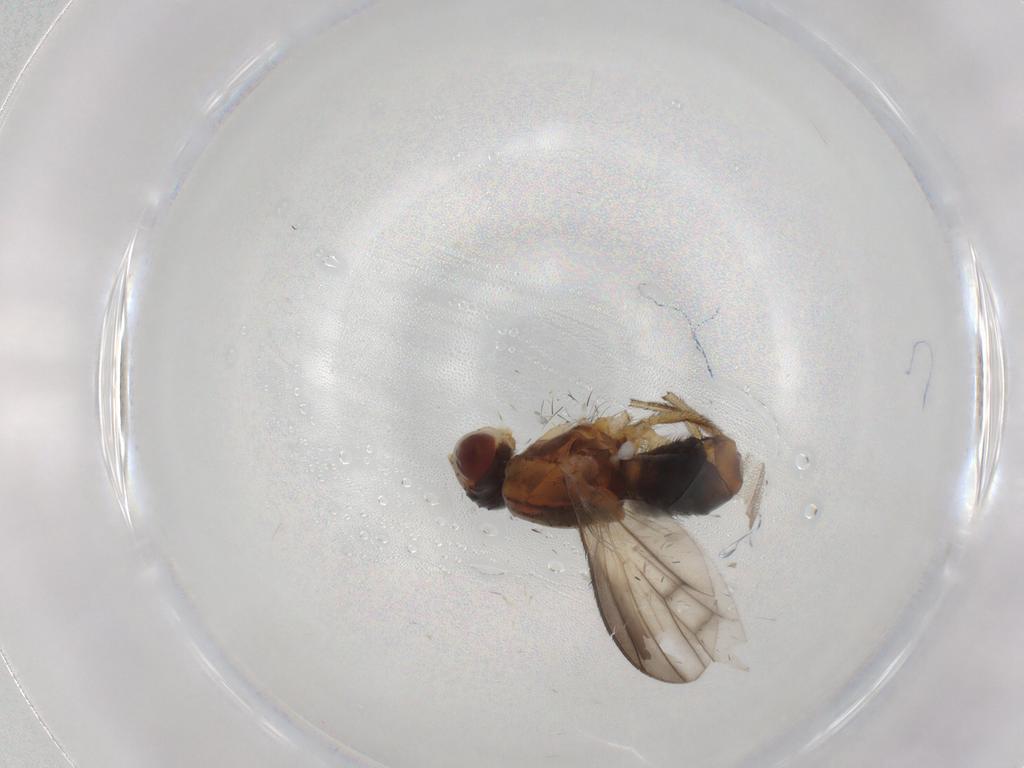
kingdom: Animalia
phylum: Arthropoda
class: Insecta
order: Diptera
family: Heleomyzidae
